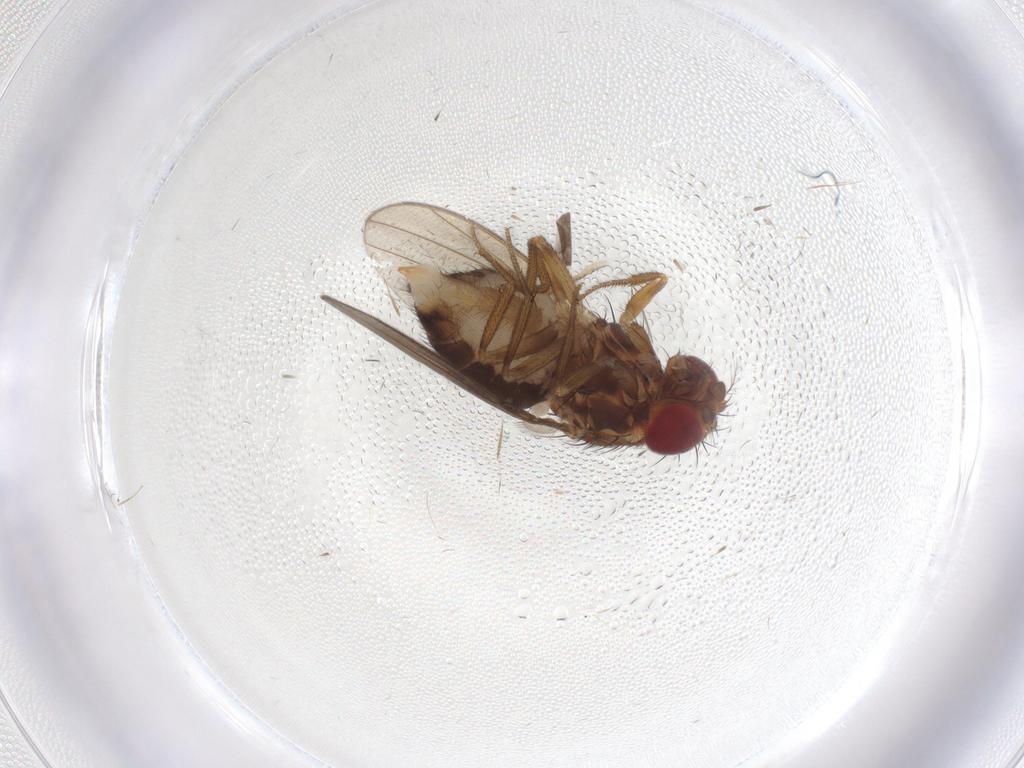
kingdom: Animalia
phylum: Arthropoda
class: Insecta
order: Diptera
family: Drosophilidae
